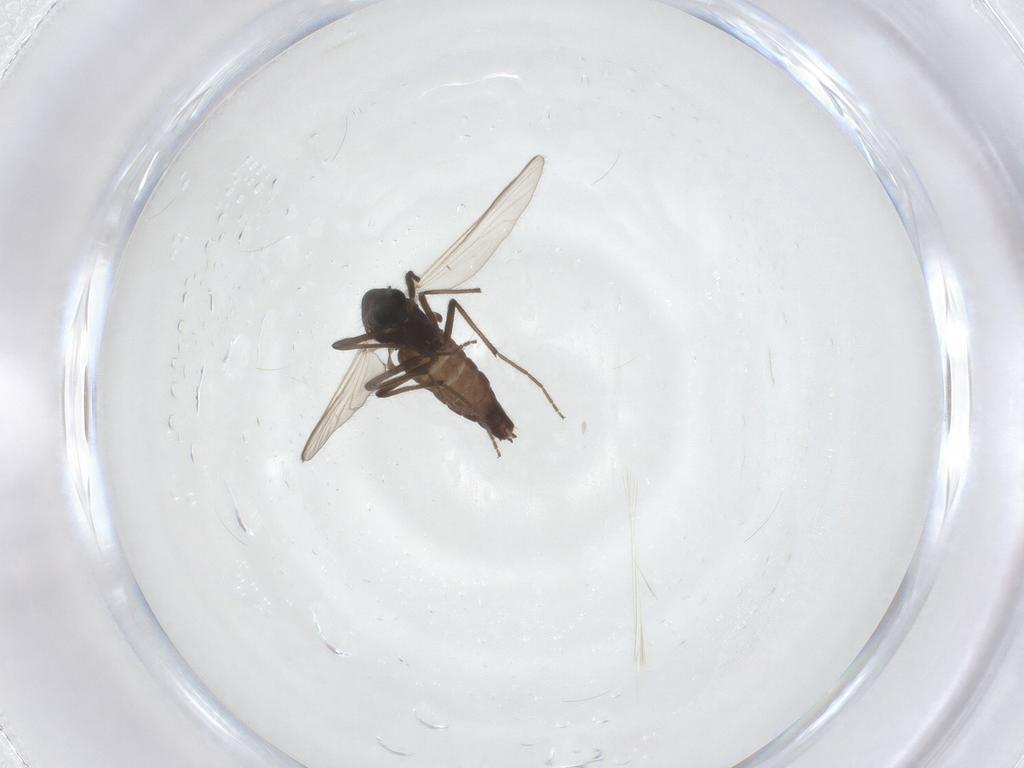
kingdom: Animalia
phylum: Arthropoda
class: Insecta
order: Diptera
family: Chironomidae
